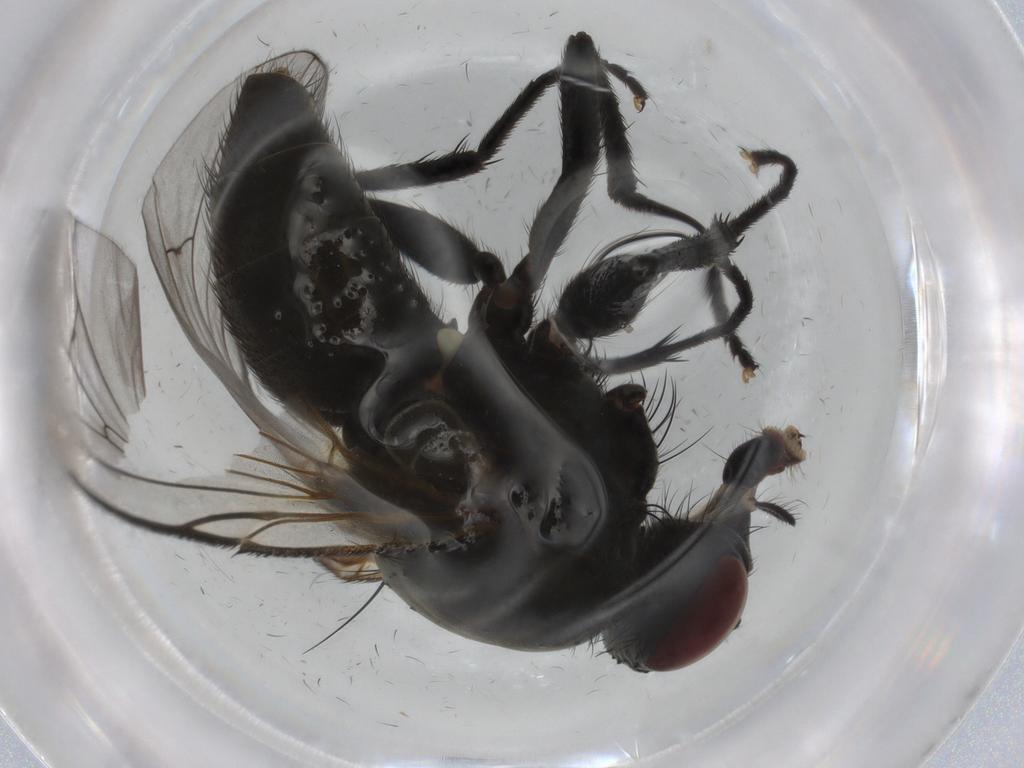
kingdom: Animalia
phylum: Arthropoda
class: Insecta
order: Diptera
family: Muscidae
